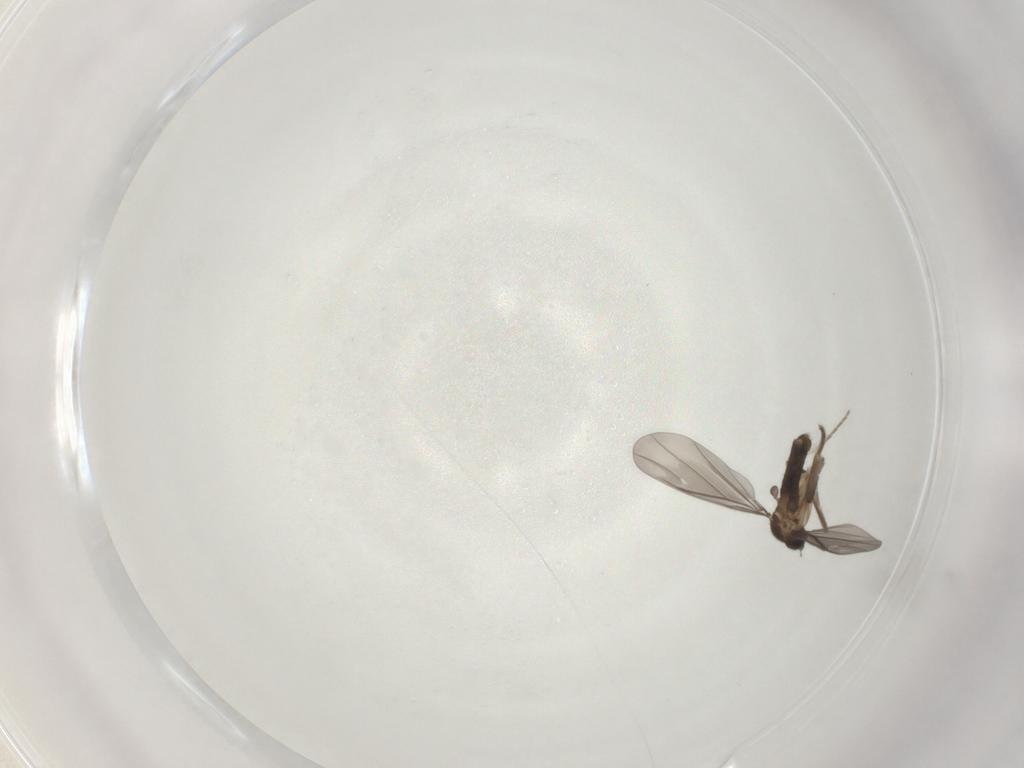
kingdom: Animalia
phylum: Arthropoda
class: Insecta
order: Diptera
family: Phoridae
